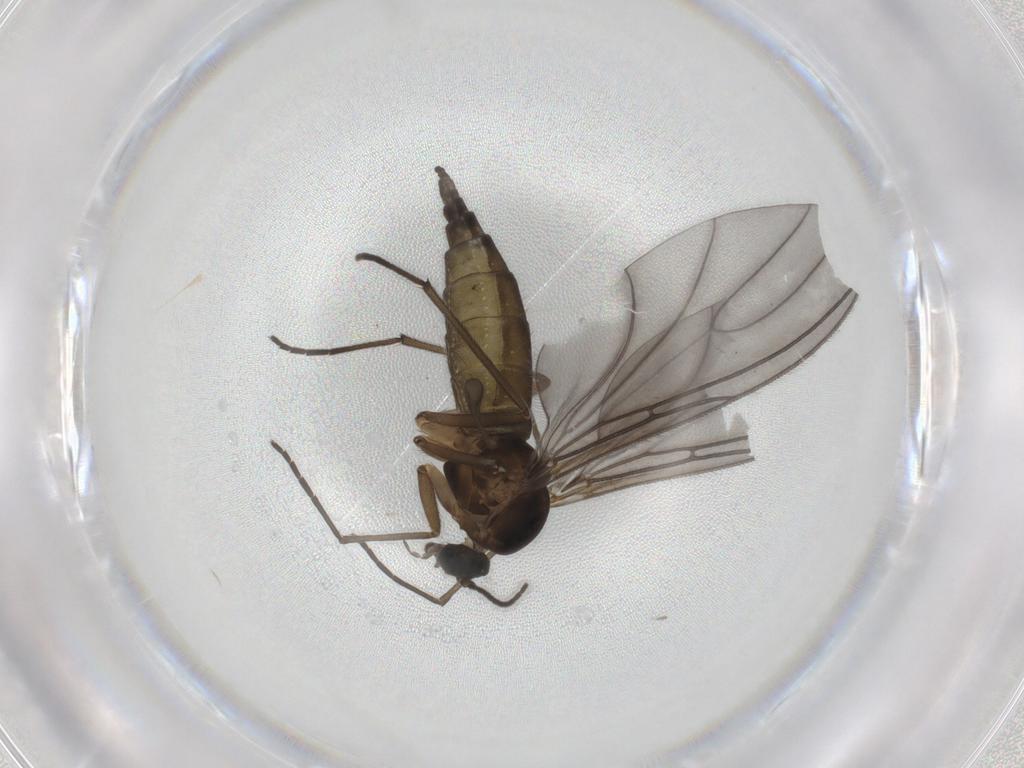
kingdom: Animalia
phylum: Arthropoda
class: Insecta
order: Diptera
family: Sciaridae
